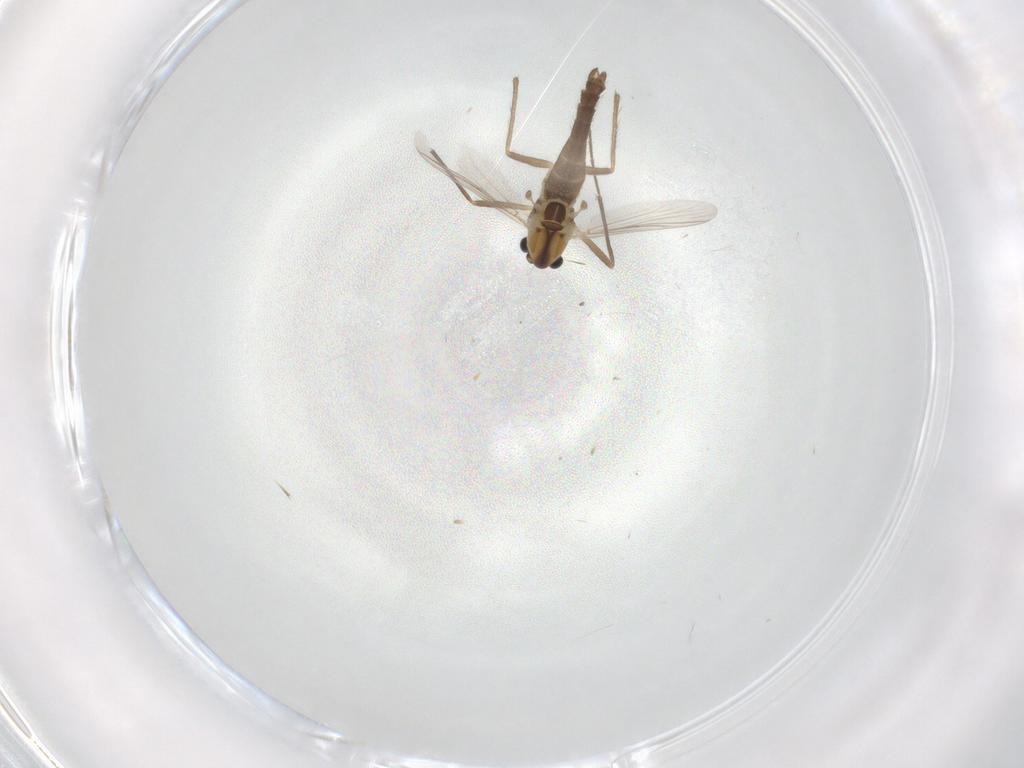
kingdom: Animalia
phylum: Arthropoda
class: Insecta
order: Diptera
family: Chironomidae
